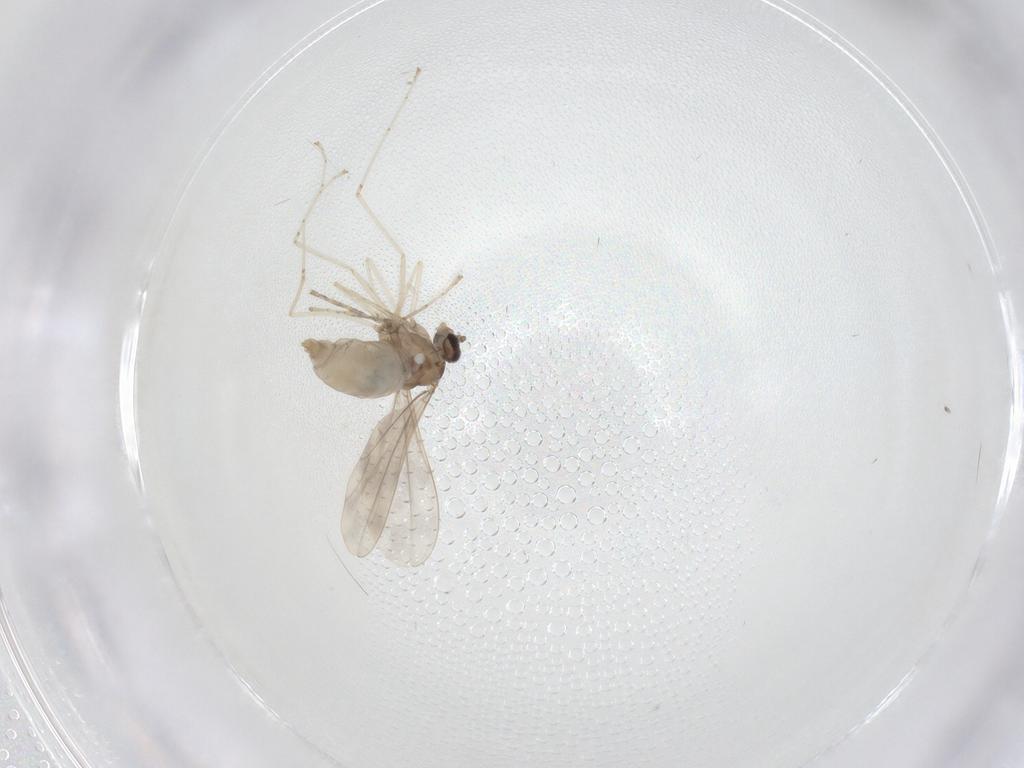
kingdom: Animalia
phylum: Arthropoda
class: Insecta
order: Diptera
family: Cecidomyiidae
